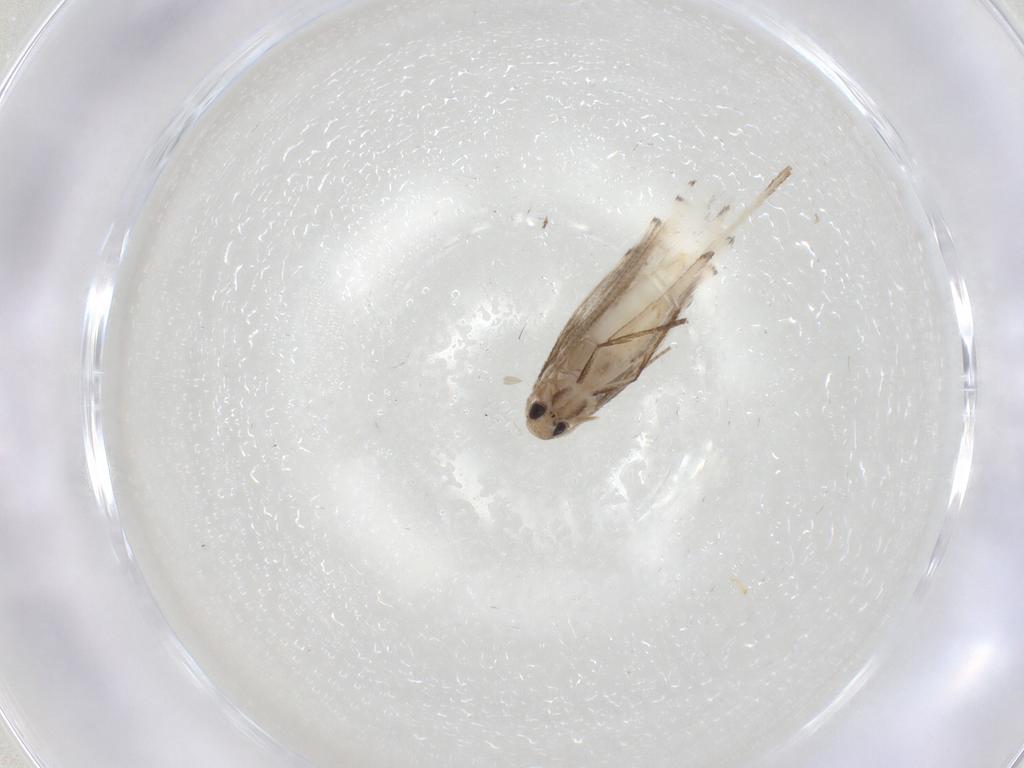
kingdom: Animalia
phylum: Arthropoda
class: Insecta
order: Lepidoptera
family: Gracillariidae
